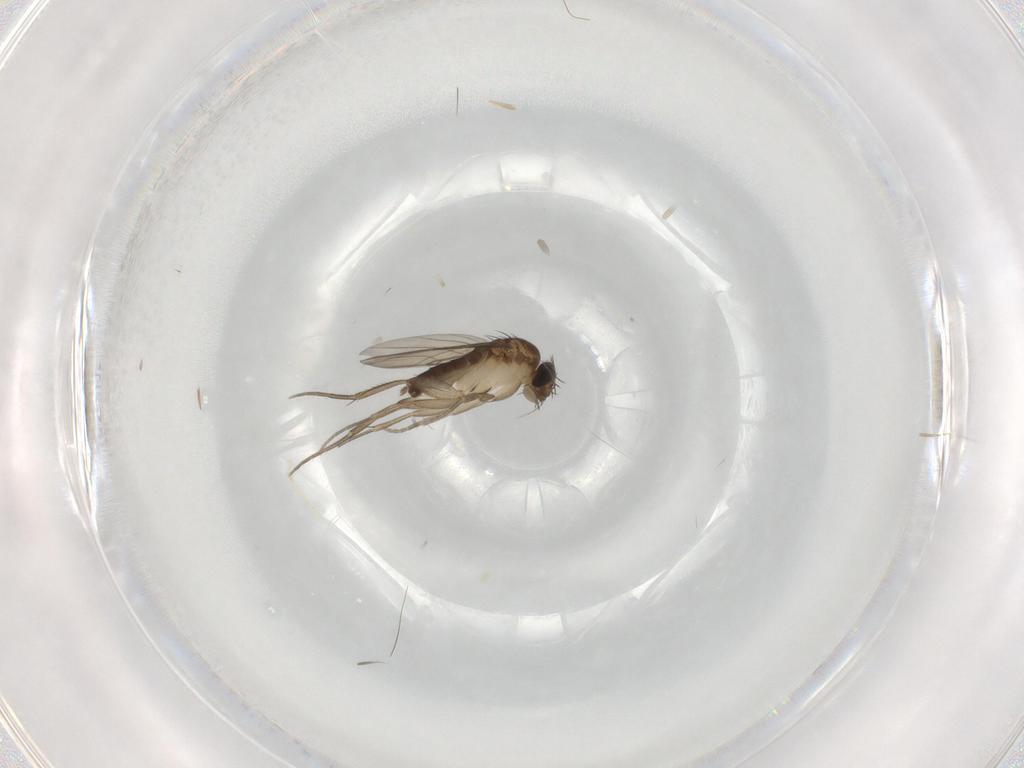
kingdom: Animalia
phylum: Arthropoda
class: Insecta
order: Diptera
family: Phoridae
